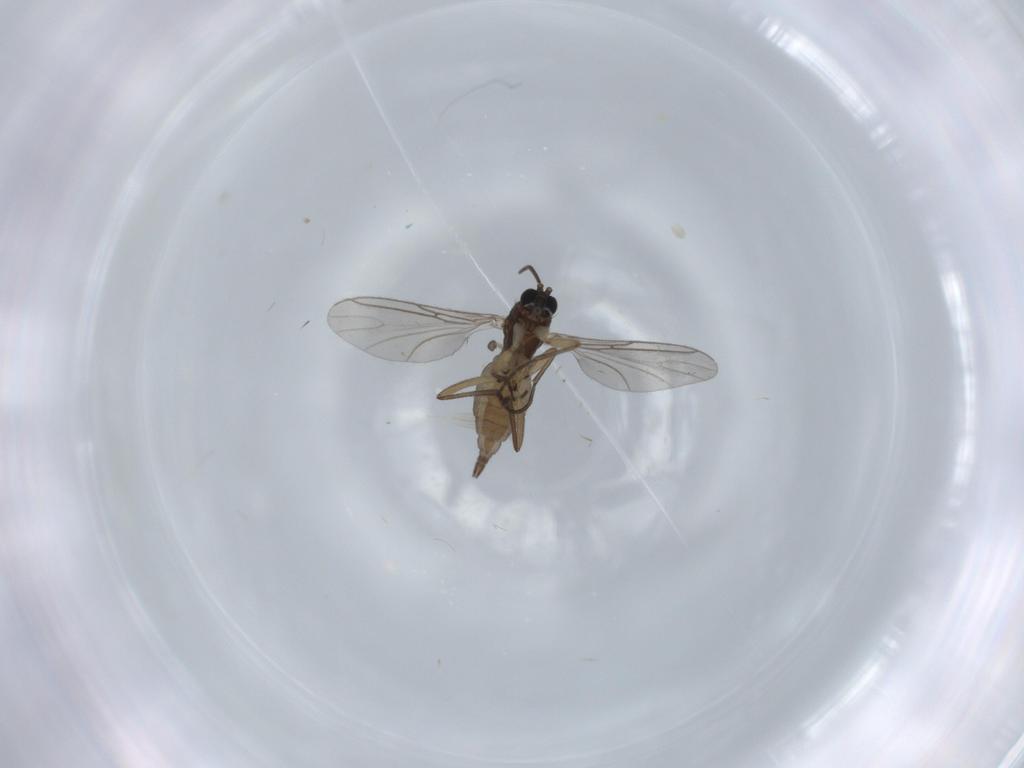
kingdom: Animalia
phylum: Arthropoda
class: Insecta
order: Diptera
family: Sciaridae
